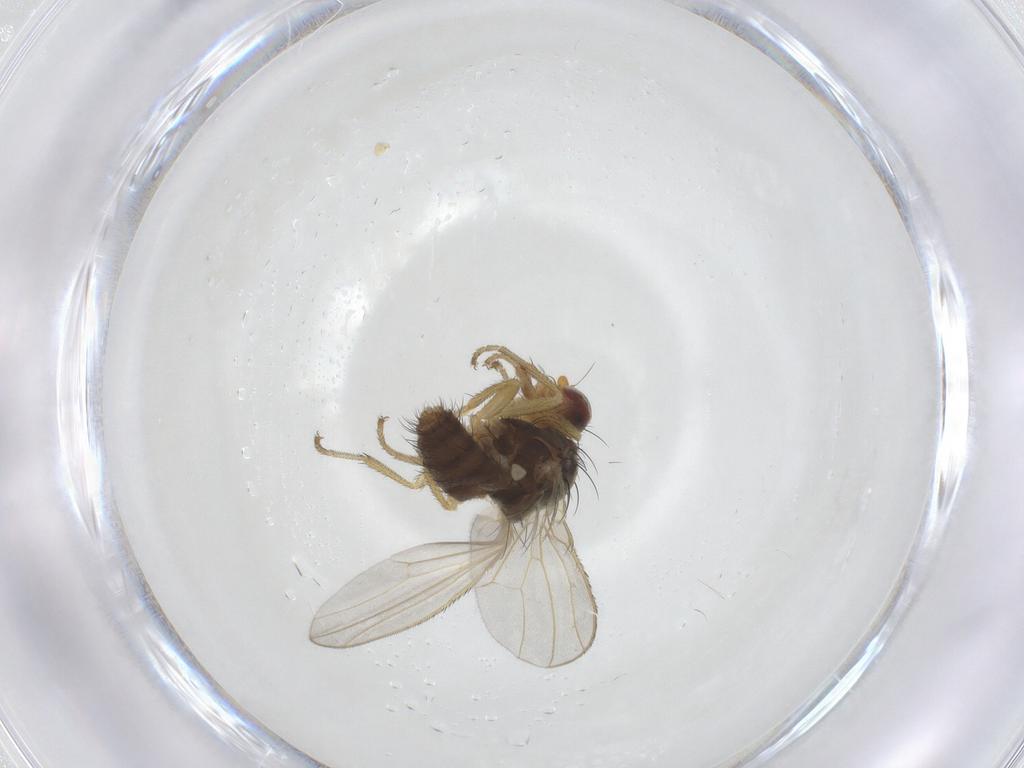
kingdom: Animalia
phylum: Arthropoda
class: Insecta
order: Diptera
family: Heleomyzidae
